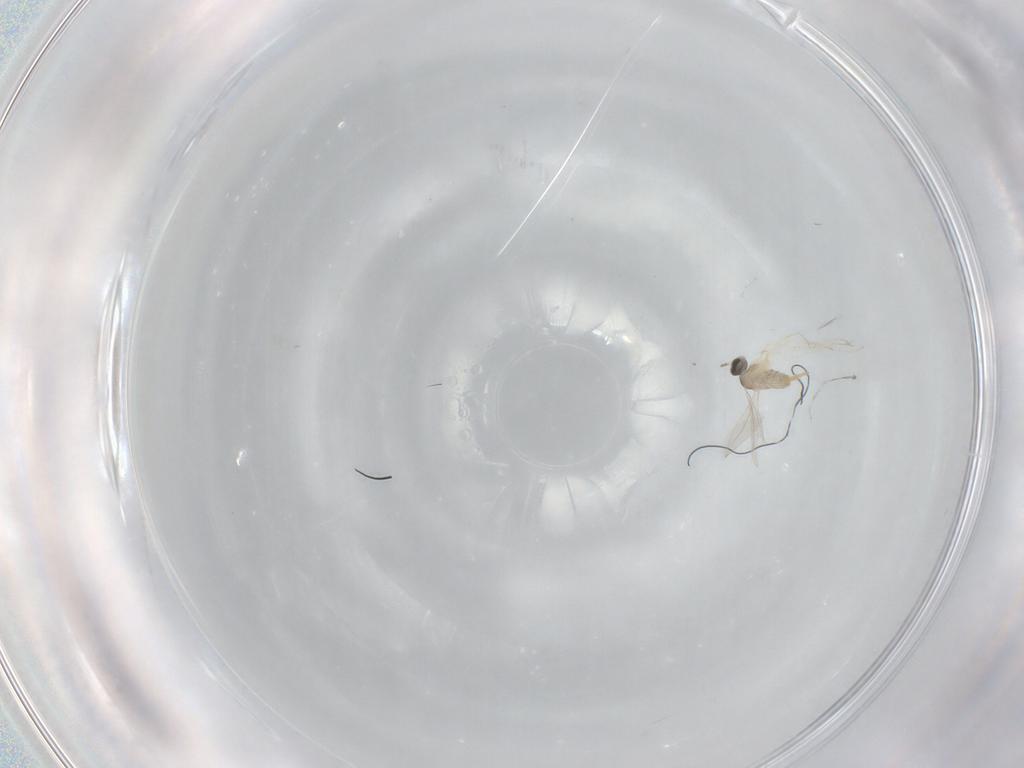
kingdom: Animalia
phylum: Arthropoda
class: Insecta
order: Diptera
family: Cecidomyiidae
